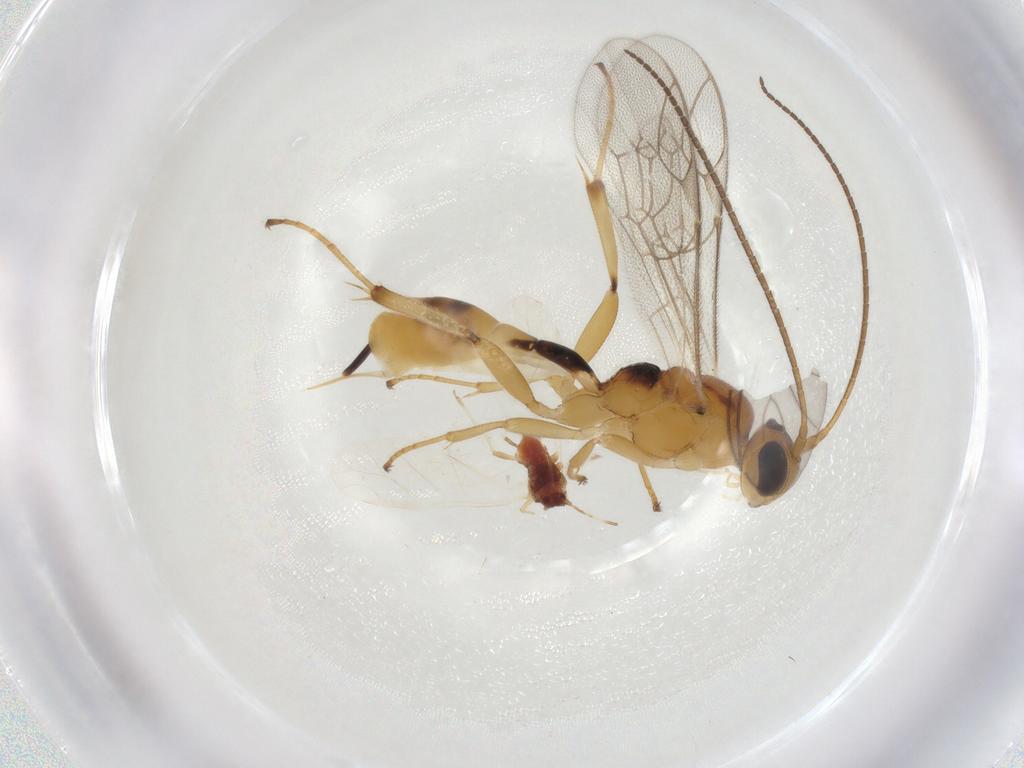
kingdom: Animalia
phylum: Arthropoda
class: Insecta
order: Hymenoptera
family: Ichneumonidae
